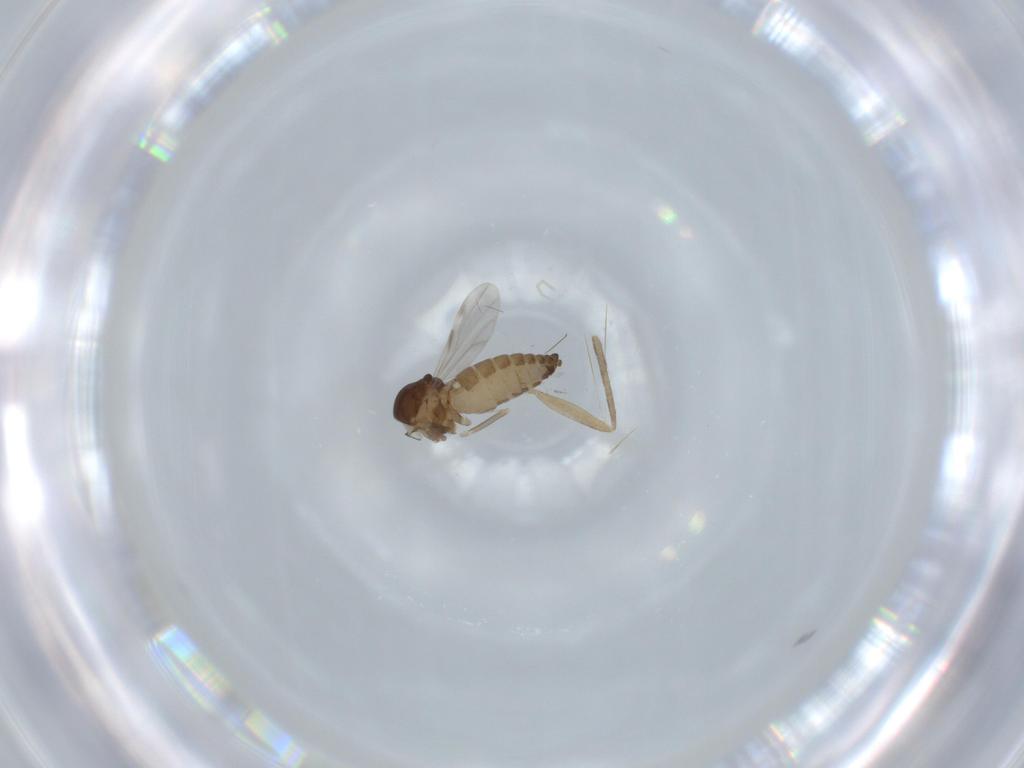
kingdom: Animalia
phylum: Arthropoda
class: Insecta
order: Diptera
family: Ceratopogonidae
